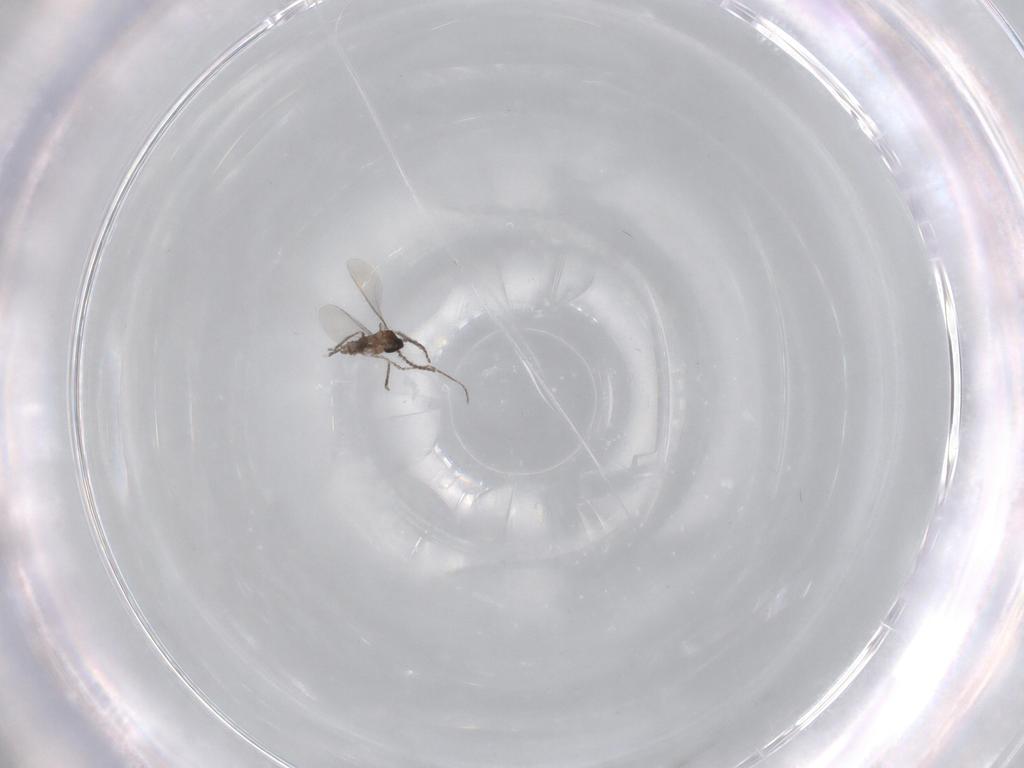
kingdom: Animalia
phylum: Arthropoda
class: Insecta
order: Diptera
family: Cecidomyiidae
